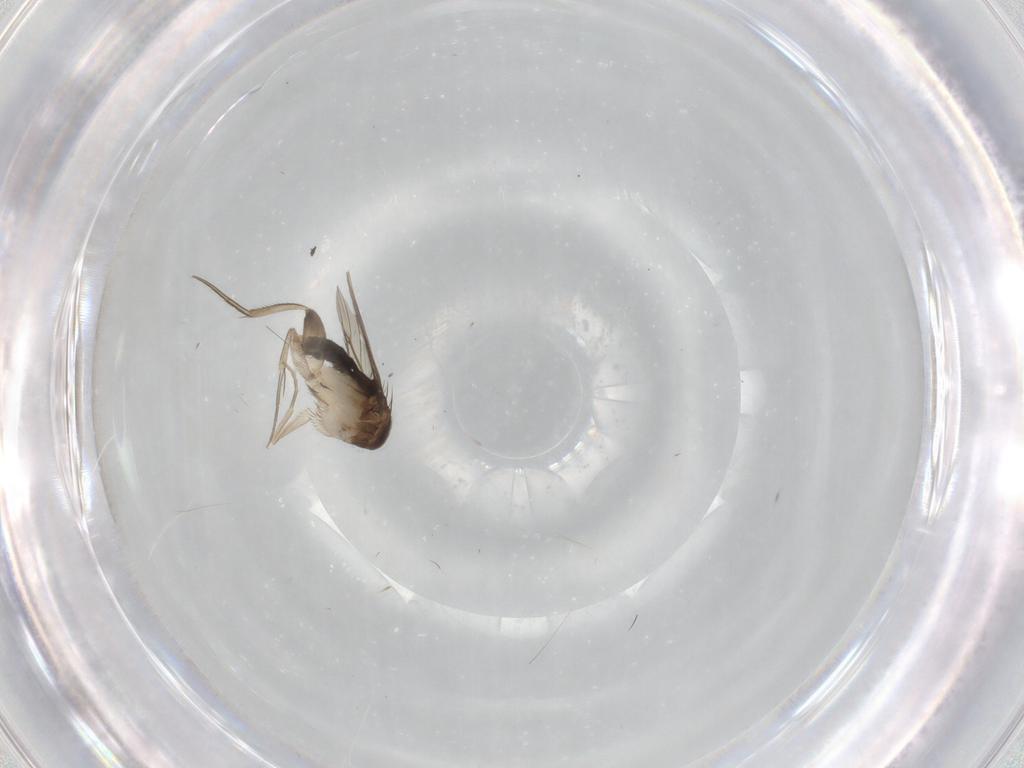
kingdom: Animalia
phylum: Arthropoda
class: Insecta
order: Diptera
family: Phoridae
